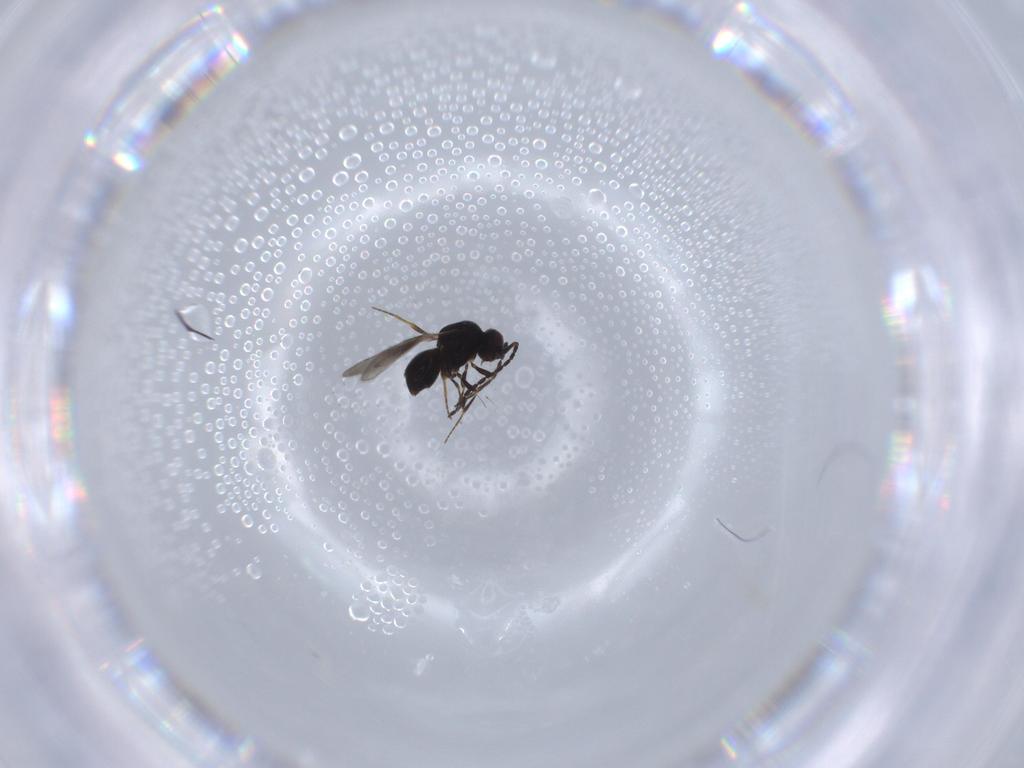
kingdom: Animalia
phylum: Arthropoda
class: Insecta
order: Hymenoptera
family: Ceraphronidae
